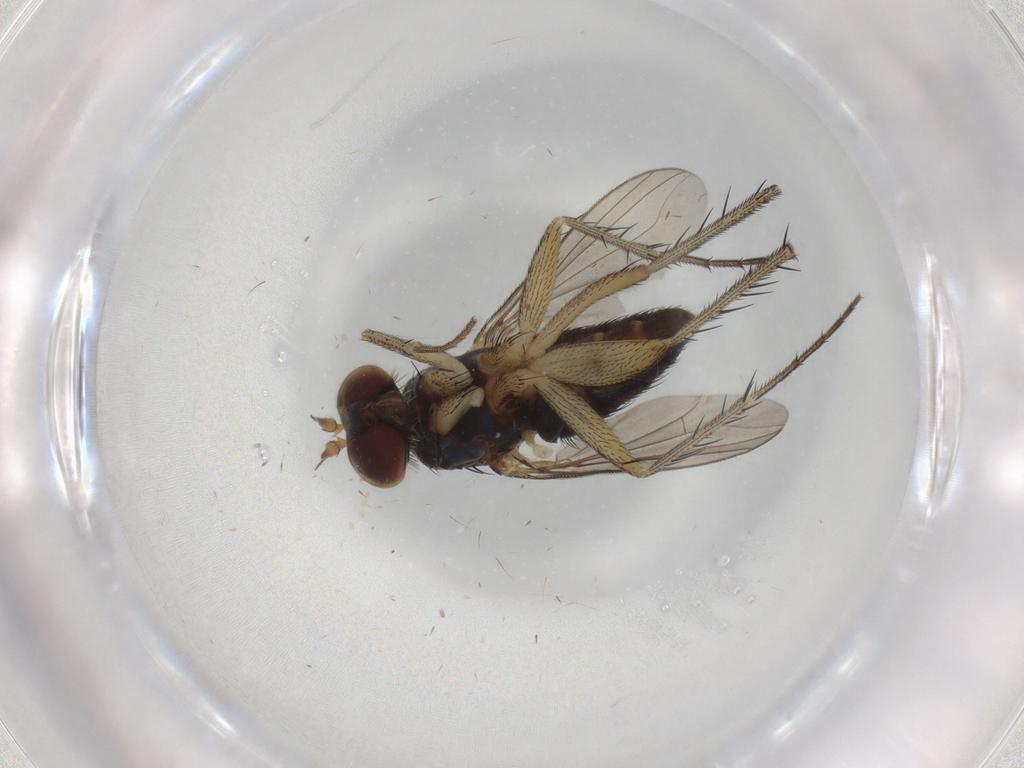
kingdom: Animalia
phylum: Arthropoda
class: Insecta
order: Diptera
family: Dolichopodidae
